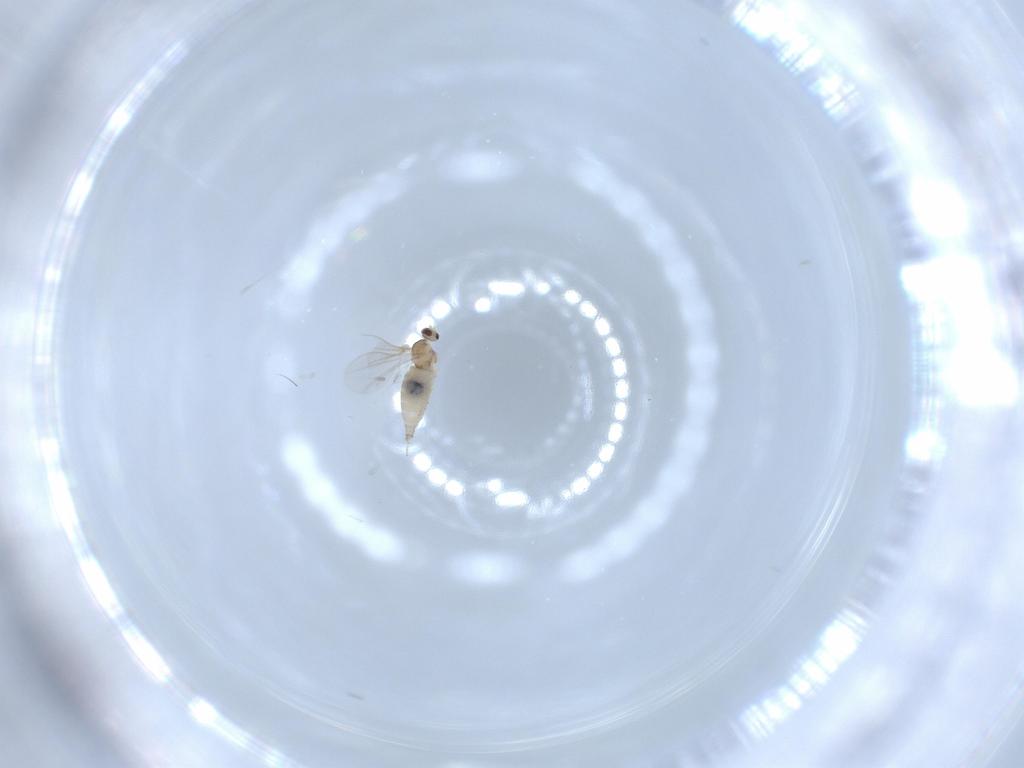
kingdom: Animalia
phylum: Arthropoda
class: Insecta
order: Diptera
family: Cecidomyiidae
